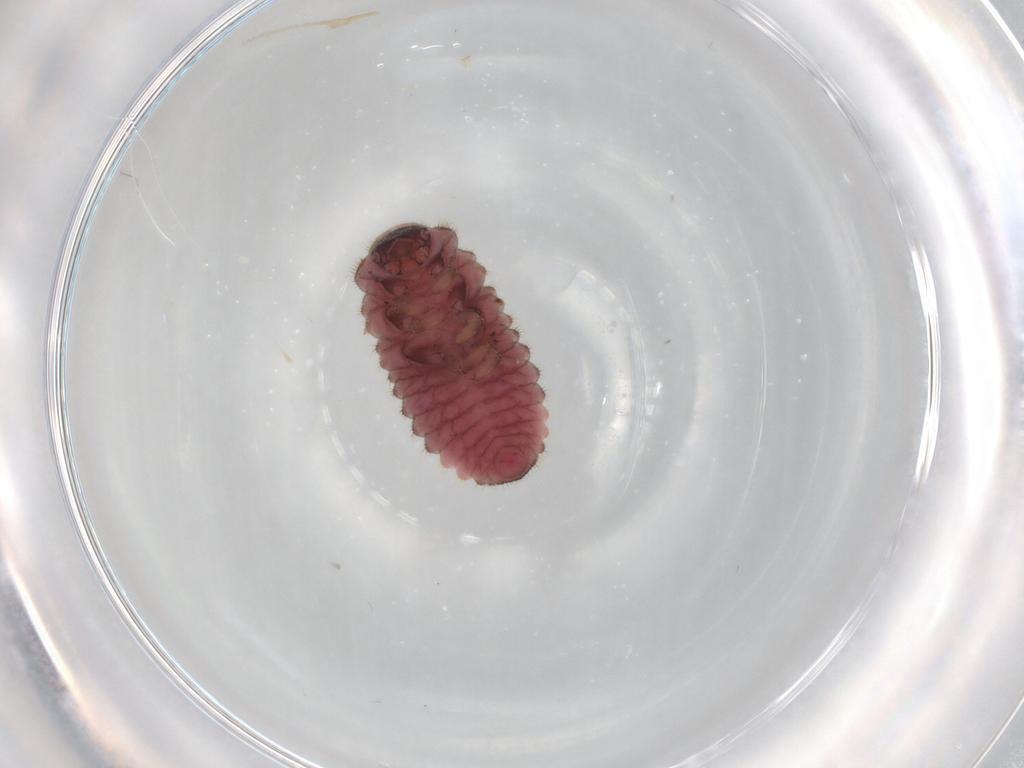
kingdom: Animalia
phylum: Arthropoda
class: Insecta
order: Coleoptera
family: Coccinellidae
